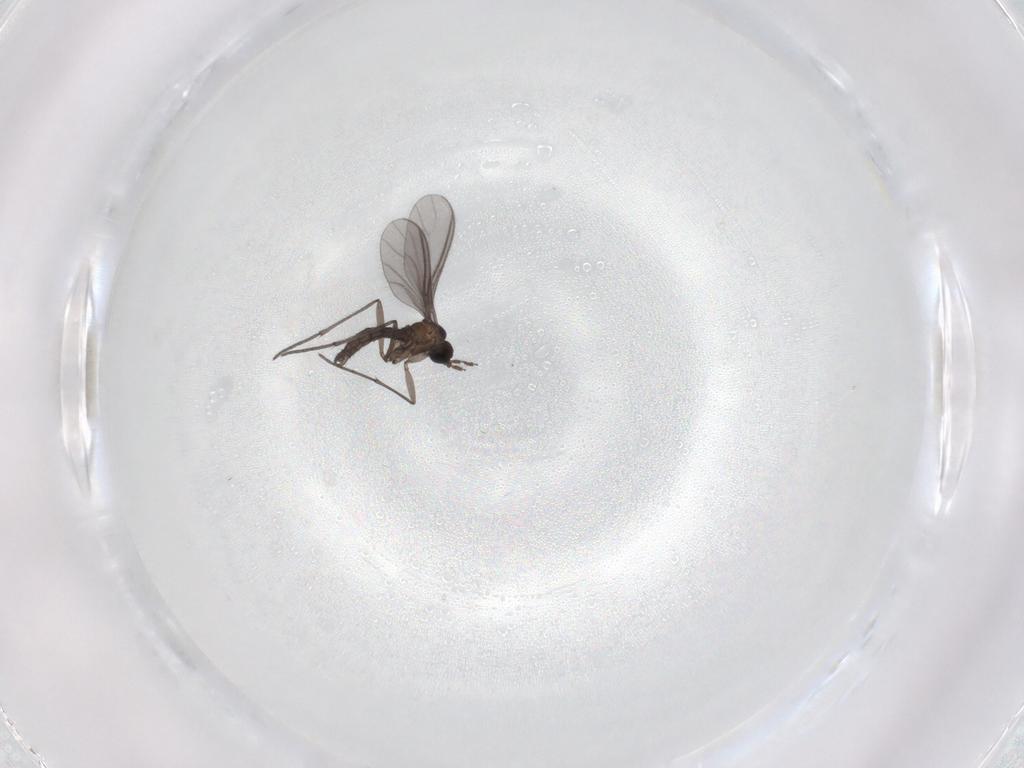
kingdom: Animalia
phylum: Arthropoda
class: Insecta
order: Diptera
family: Sciaridae
